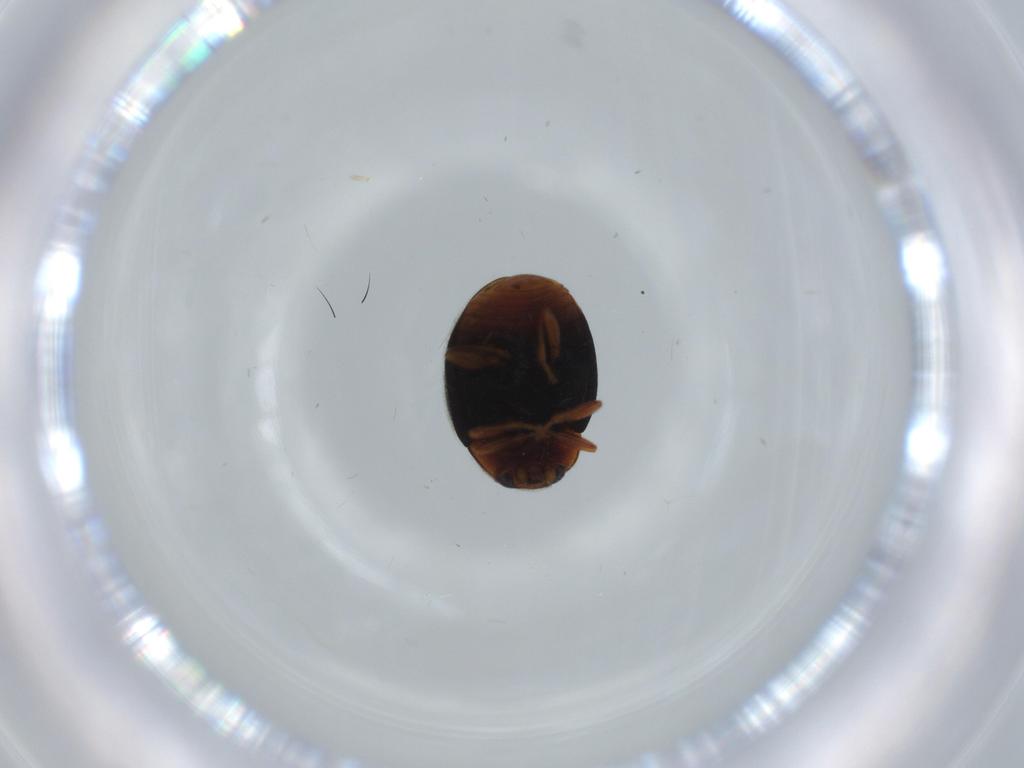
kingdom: Animalia
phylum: Arthropoda
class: Insecta
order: Coleoptera
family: Coccinellidae
